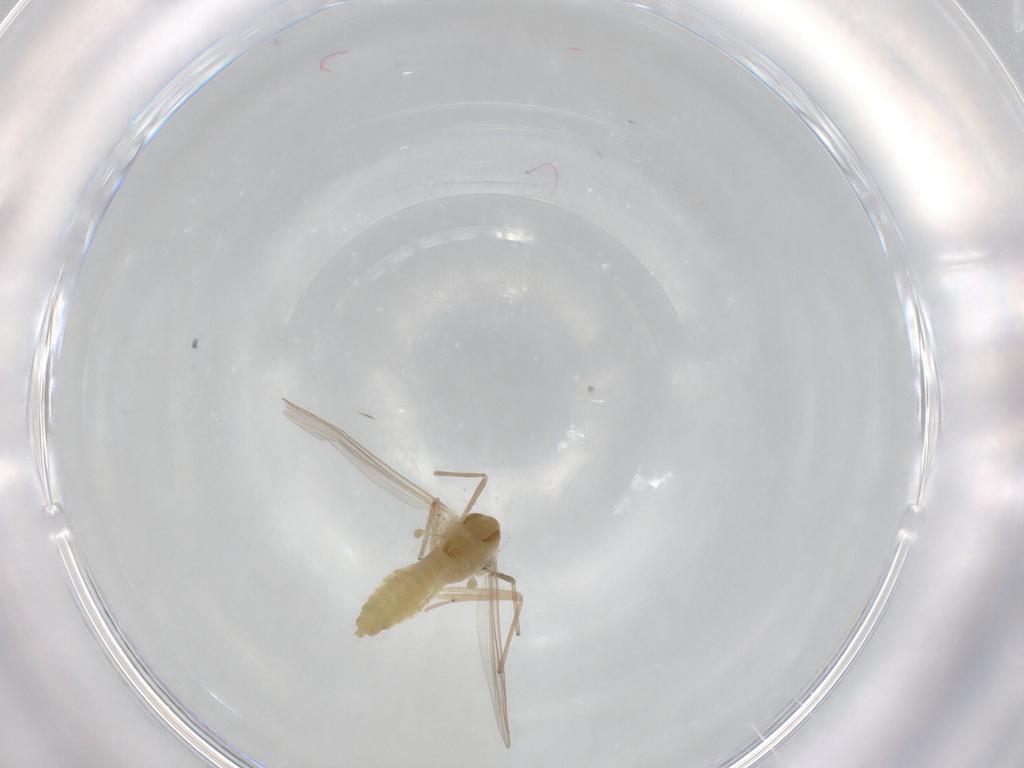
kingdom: Animalia
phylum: Arthropoda
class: Insecta
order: Diptera
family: Chironomidae
